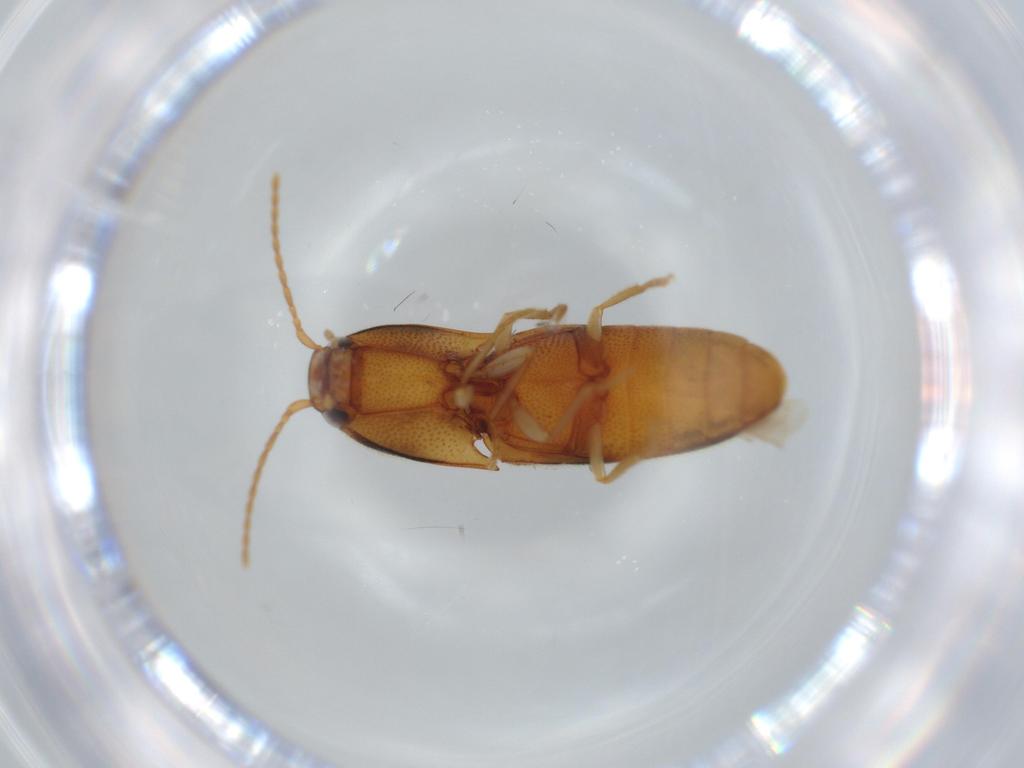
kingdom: Animalia
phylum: Arthropoda
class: Insecta
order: Coleoptera
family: Elateridae
